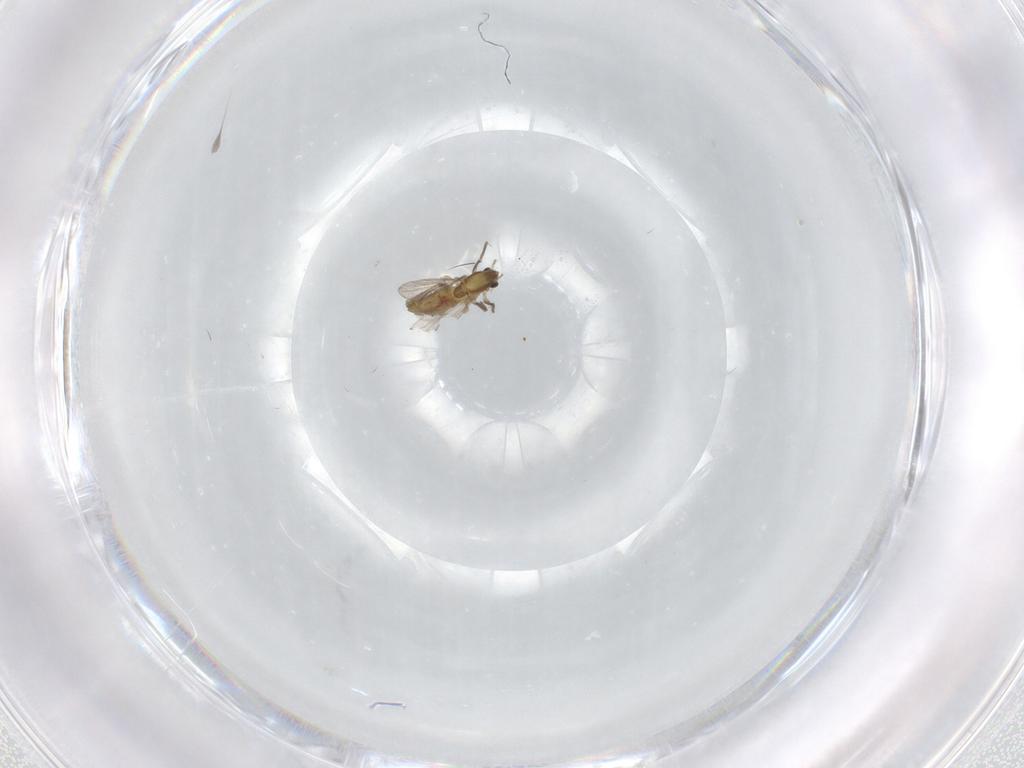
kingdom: Animalia
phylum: Arthropoda
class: Insecta
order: Diptera
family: Chironomidae
